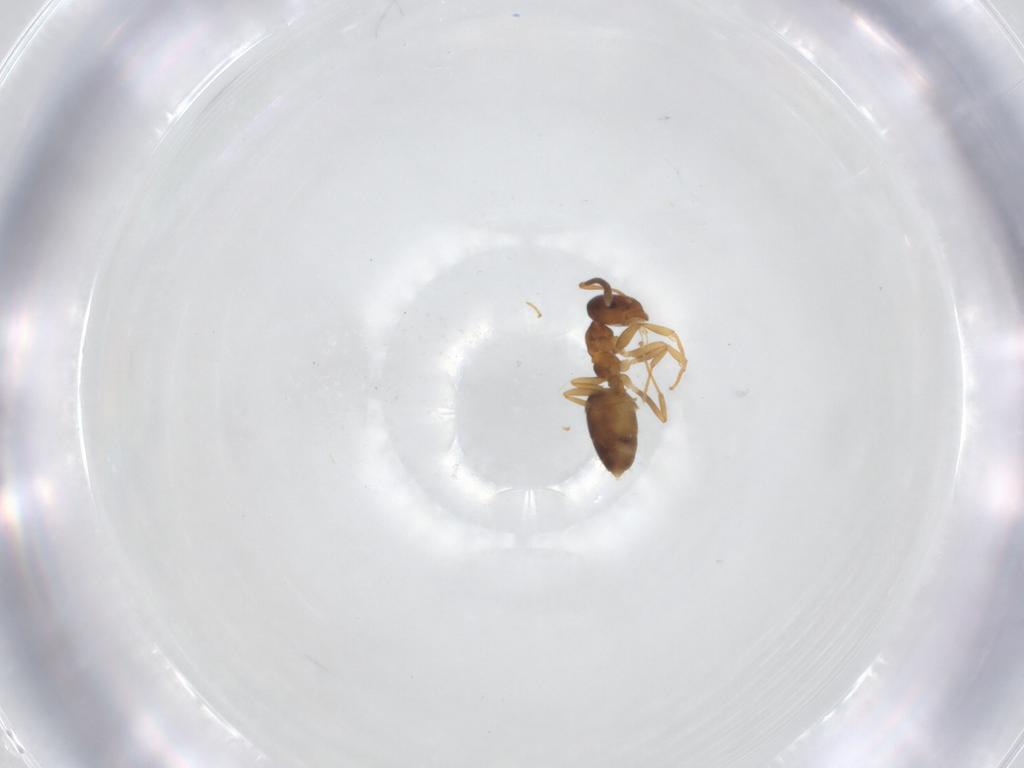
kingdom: Animalia
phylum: Arthropoda
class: Insecta
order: Hymenoptera
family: Formicidae
